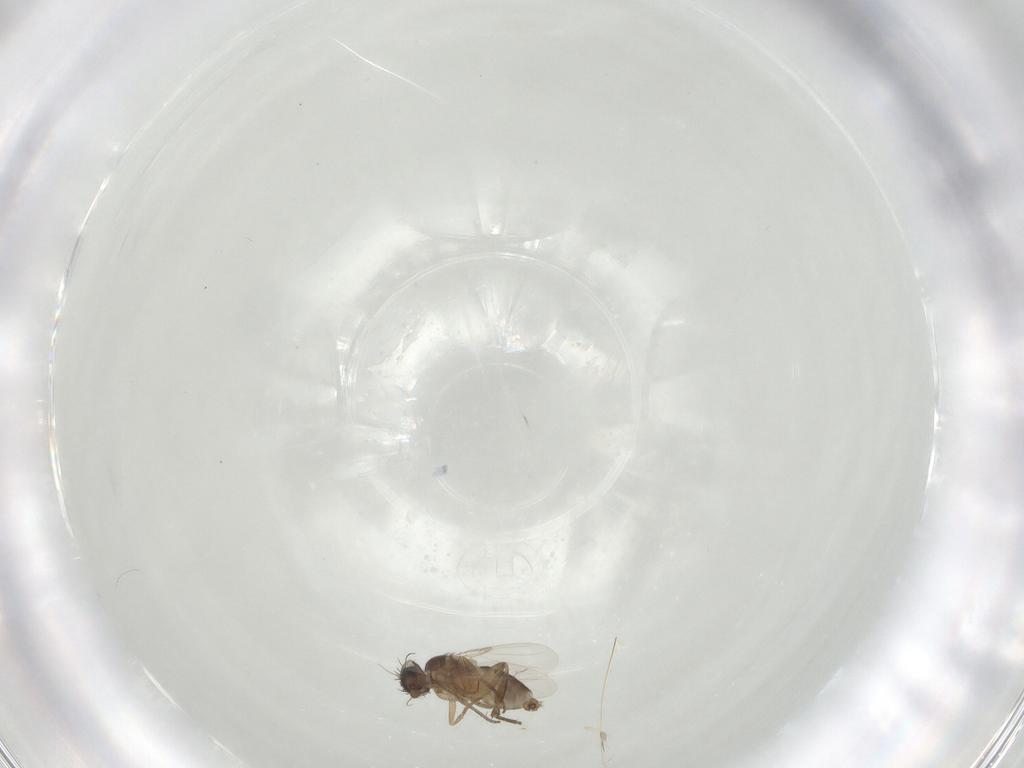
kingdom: Animalia
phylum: Arthropoda
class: Insecta
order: Diptera
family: Phoridae
